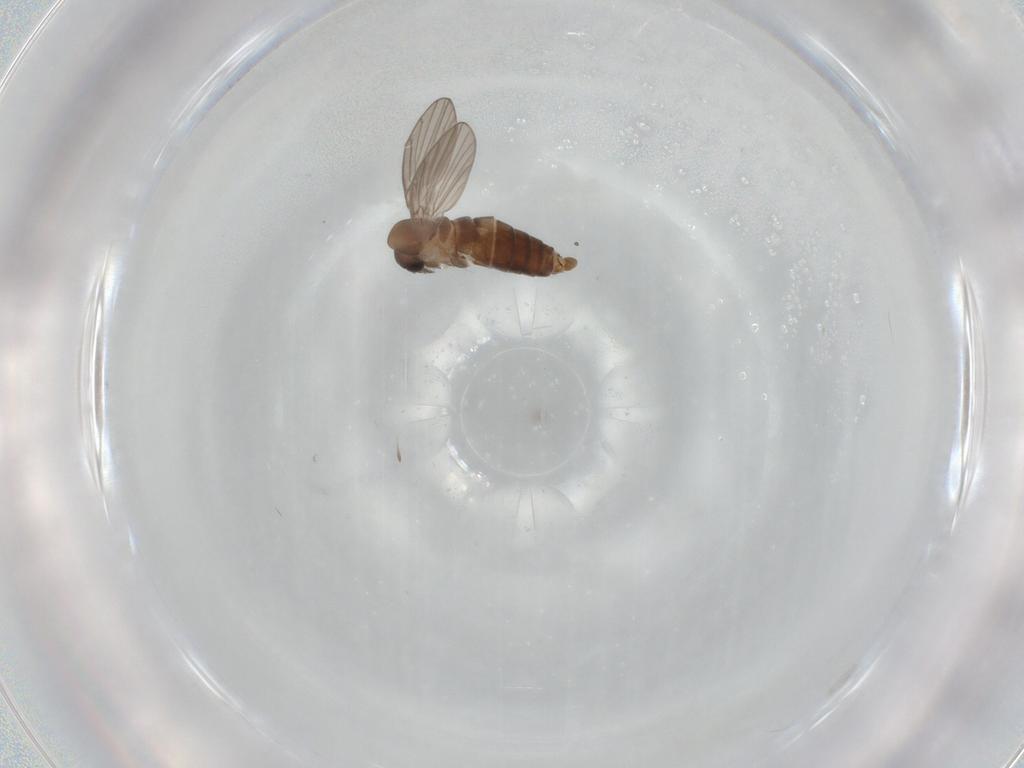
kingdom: Animalia
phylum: Arthropoda
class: Insecta
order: Diptera
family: Psychodidae
